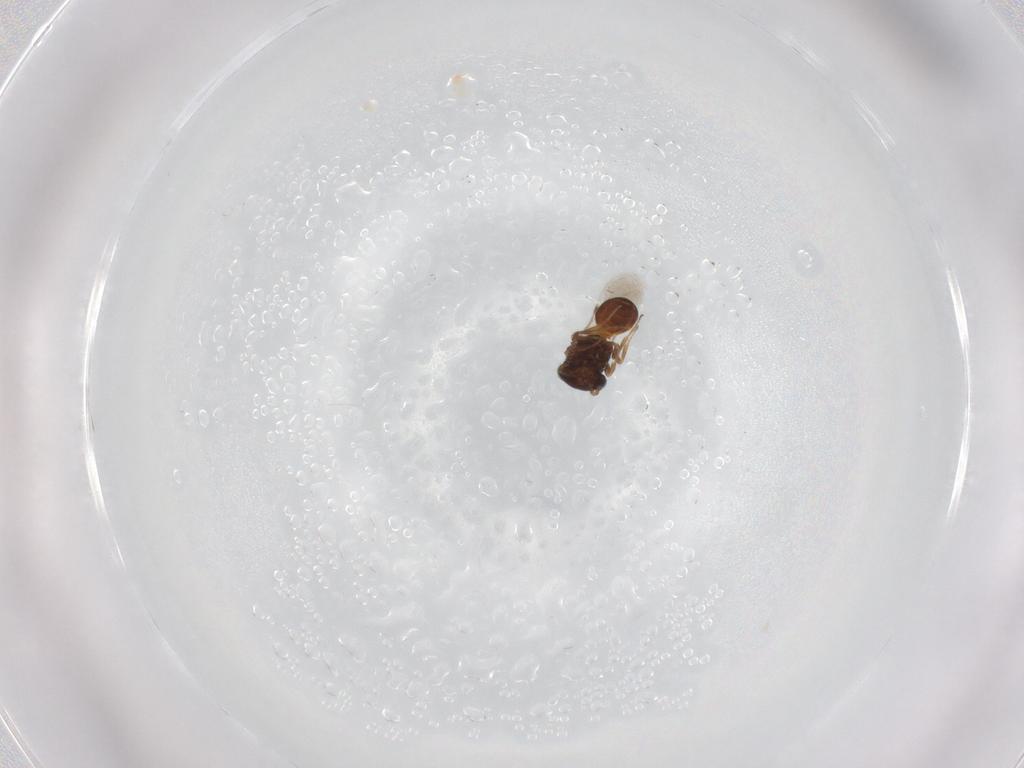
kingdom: Animalia
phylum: Arthropoda
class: Insecta
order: Hymenoptera
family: Scelionidae
